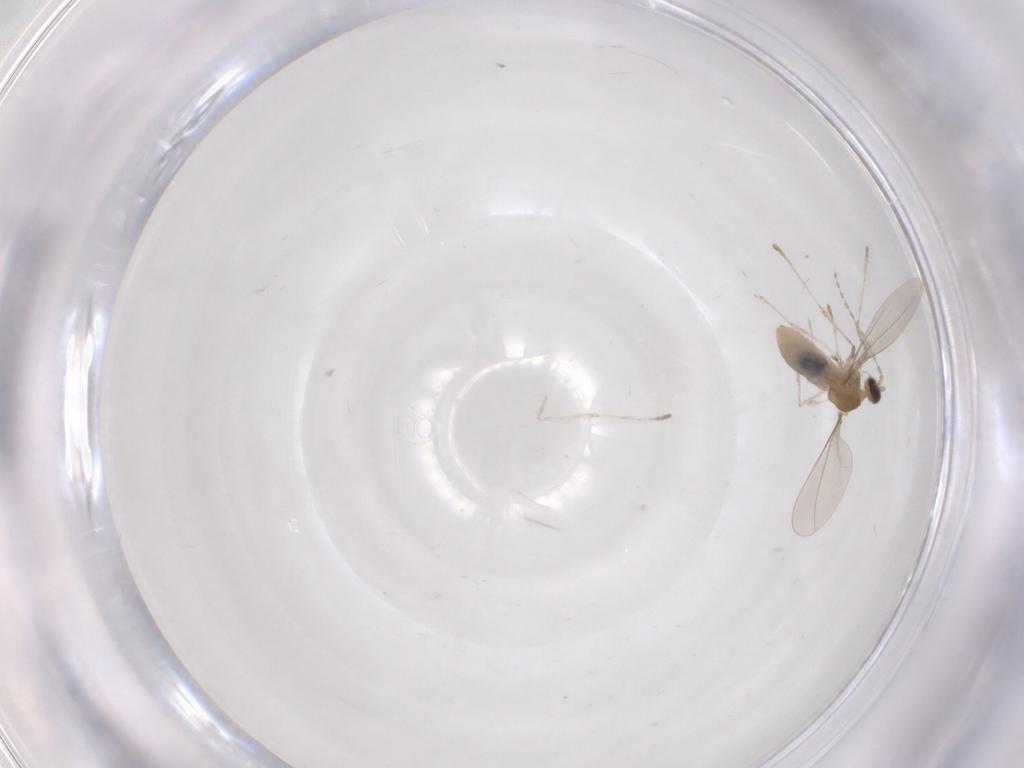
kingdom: Animalia
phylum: Arthropoda
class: Insecta
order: Diptera
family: Cecidomyiidae
